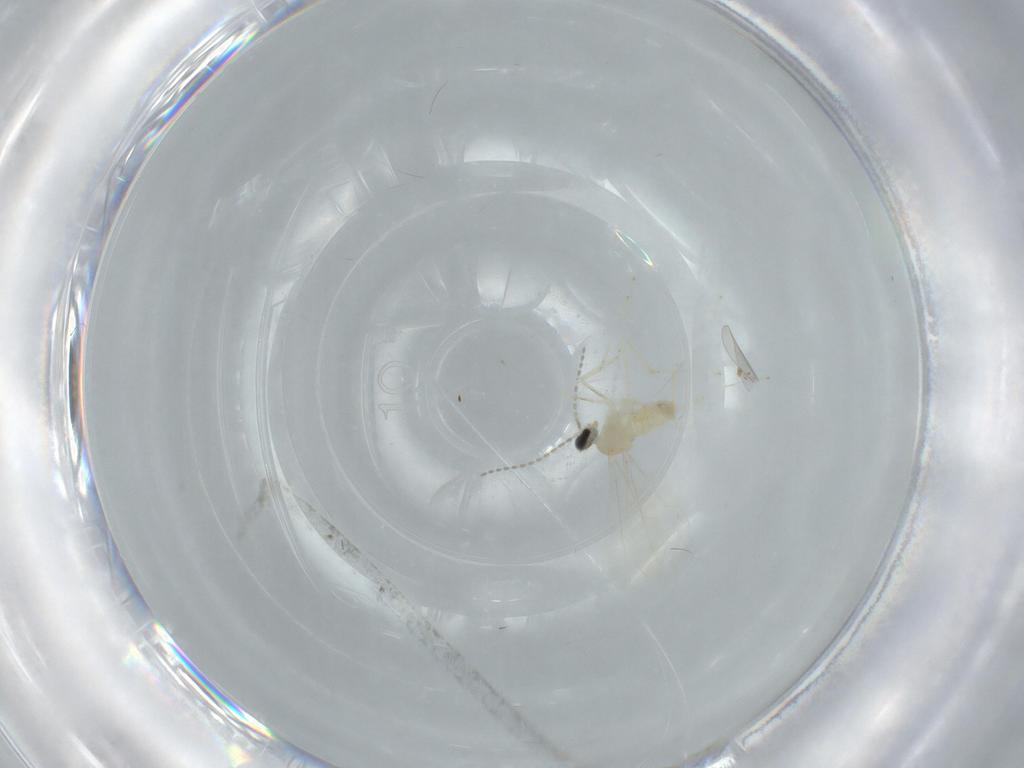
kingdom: Animalia
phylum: Arthropoda
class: Insecta
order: Diptera
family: Cecidomyiidae
